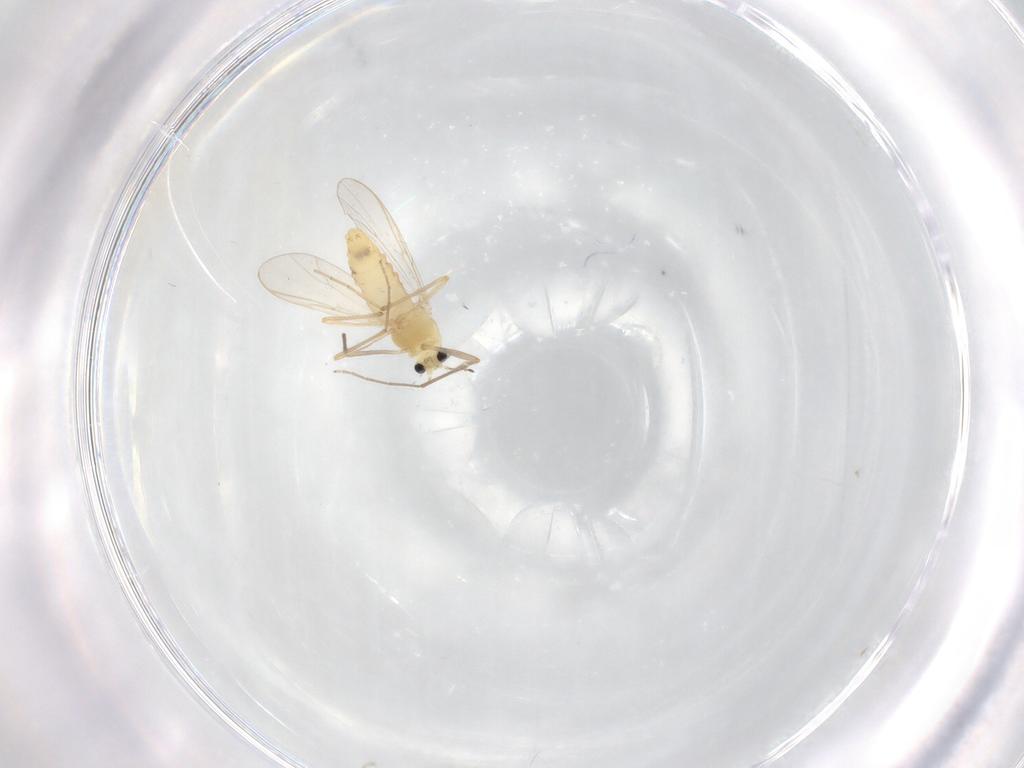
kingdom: Animalia
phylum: Arthropoda
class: Insecta
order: Diptera
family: Chironomidae
